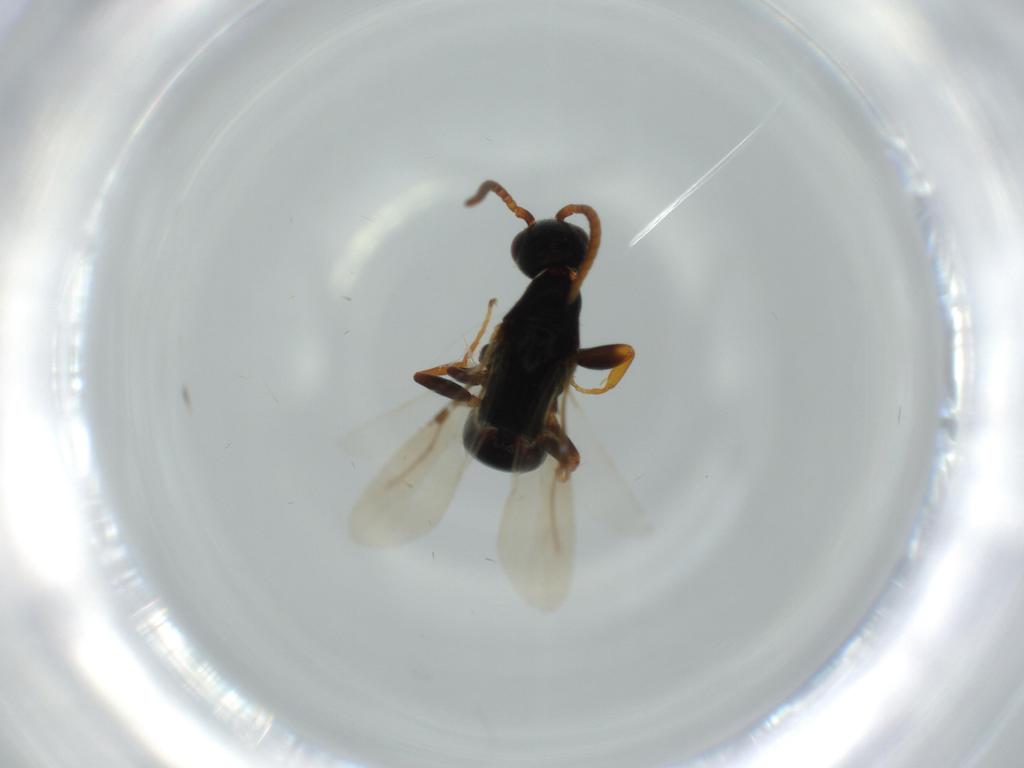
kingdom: Animalia
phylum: Arthropoda
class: Insecta
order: Hymenoptera
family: Bethylidae
